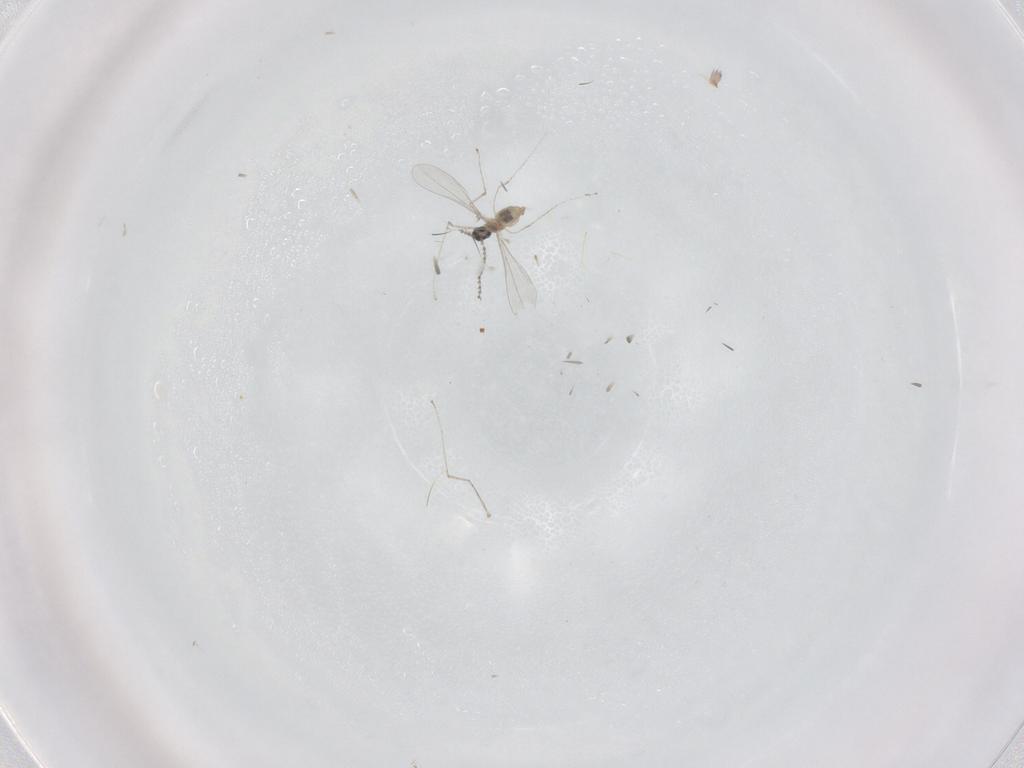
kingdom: Animalia
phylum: Arthropoda
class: Insecta
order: Diptera
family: Cecidomyiidae
